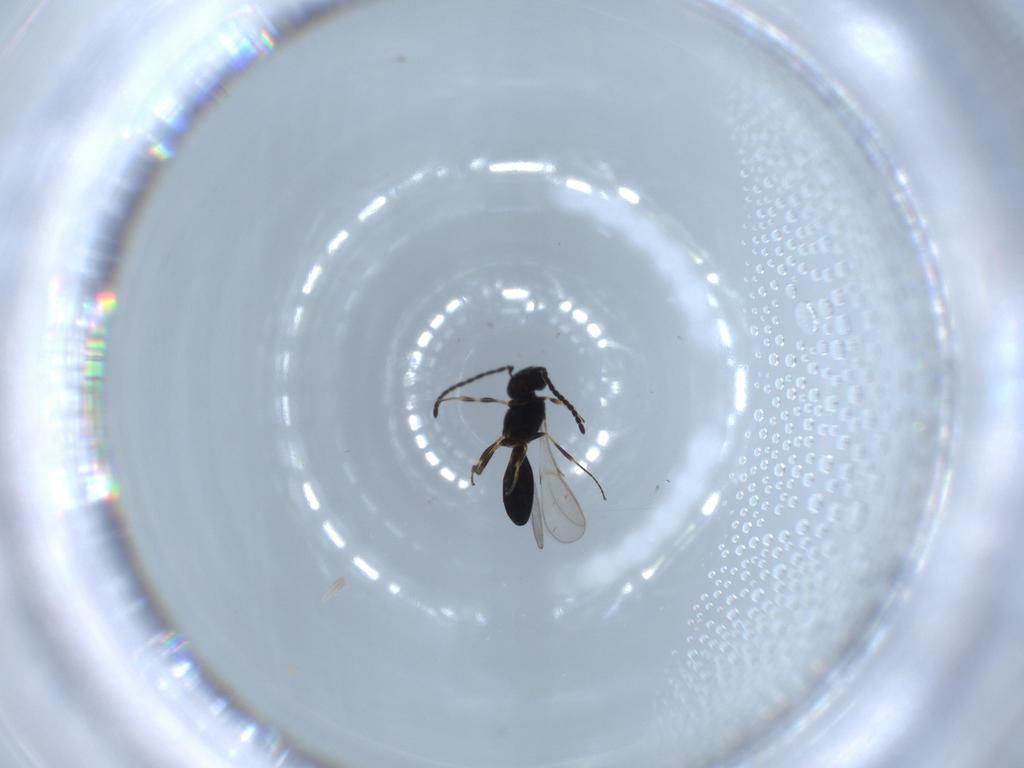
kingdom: Animalia
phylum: Arthropoda
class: Insecta
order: Hymenoptera
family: Scelionidae
